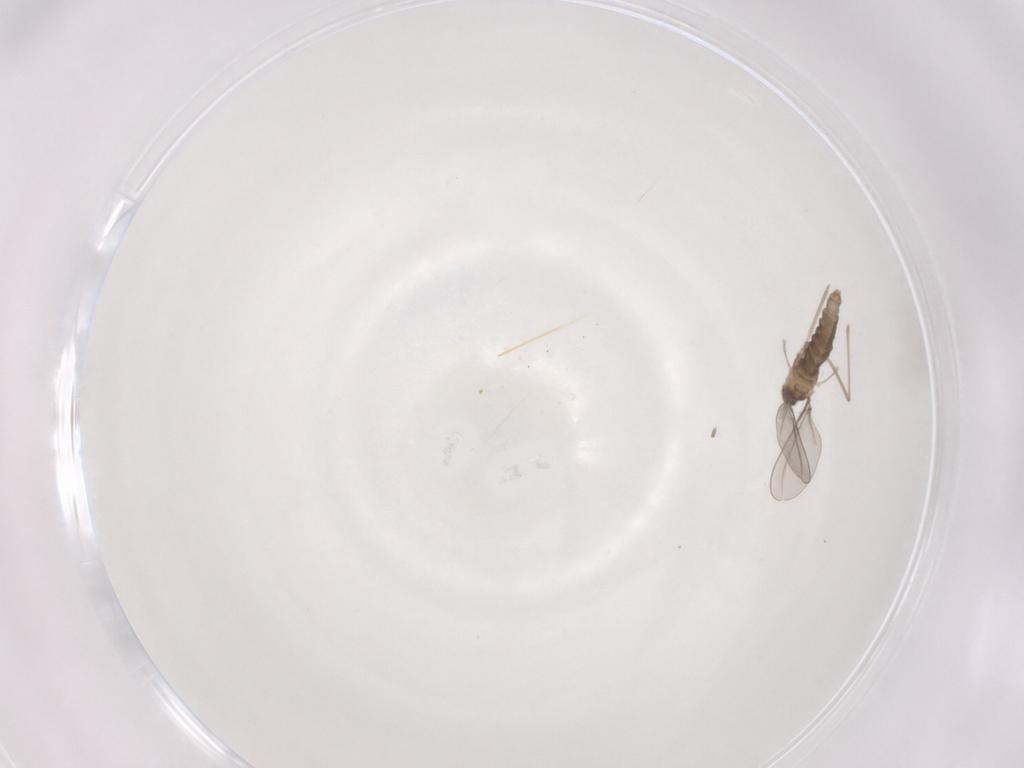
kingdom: Animalia
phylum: Arthropoda
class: Insecta
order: Diptera
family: Cecidomyiidae
